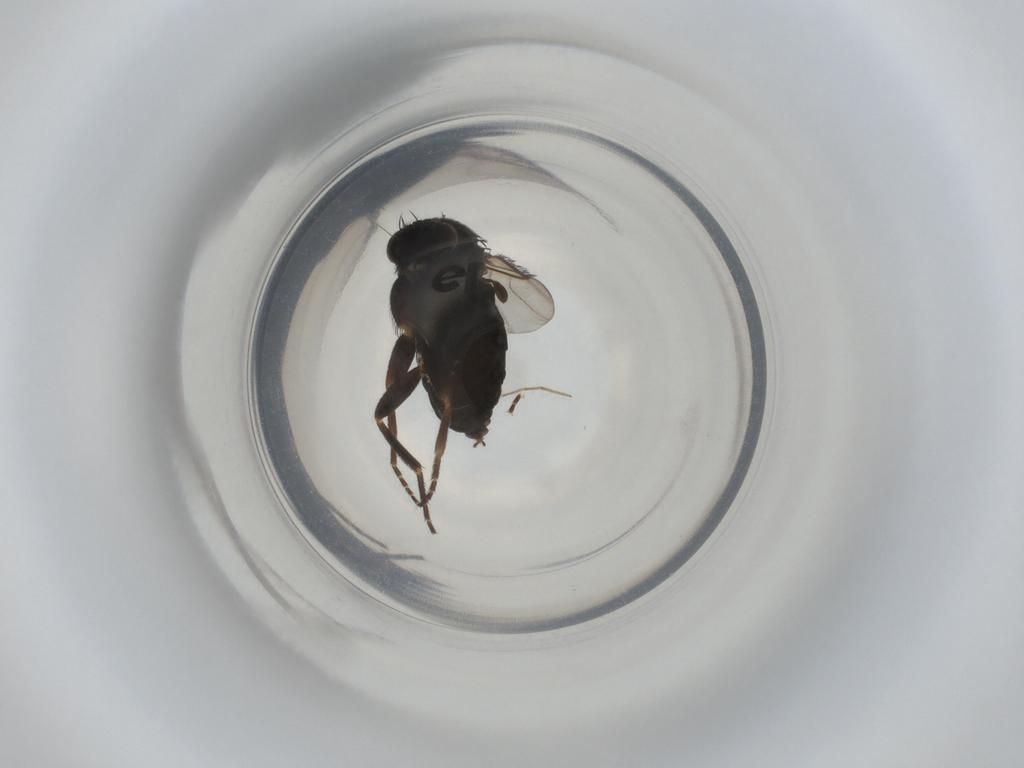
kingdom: Animalia
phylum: Arthropoda
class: Insecta
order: Diptera
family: Phoridae
